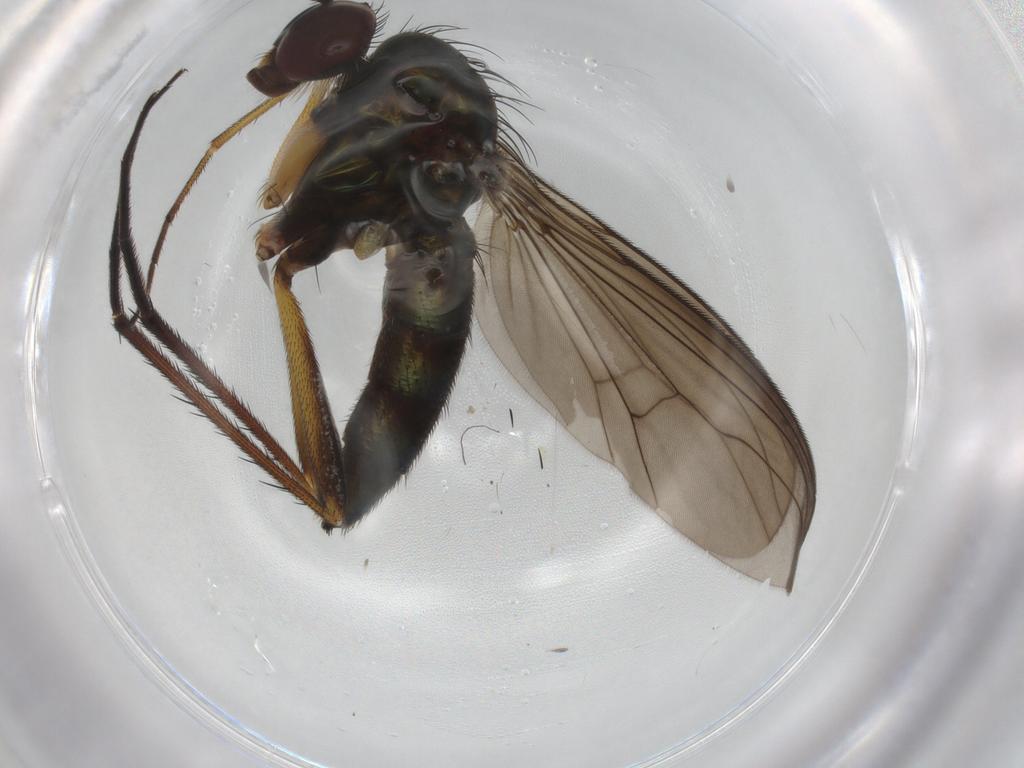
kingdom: Animalia
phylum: Arthropoda
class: Insecta
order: Diptera
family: Dolichopodidae
